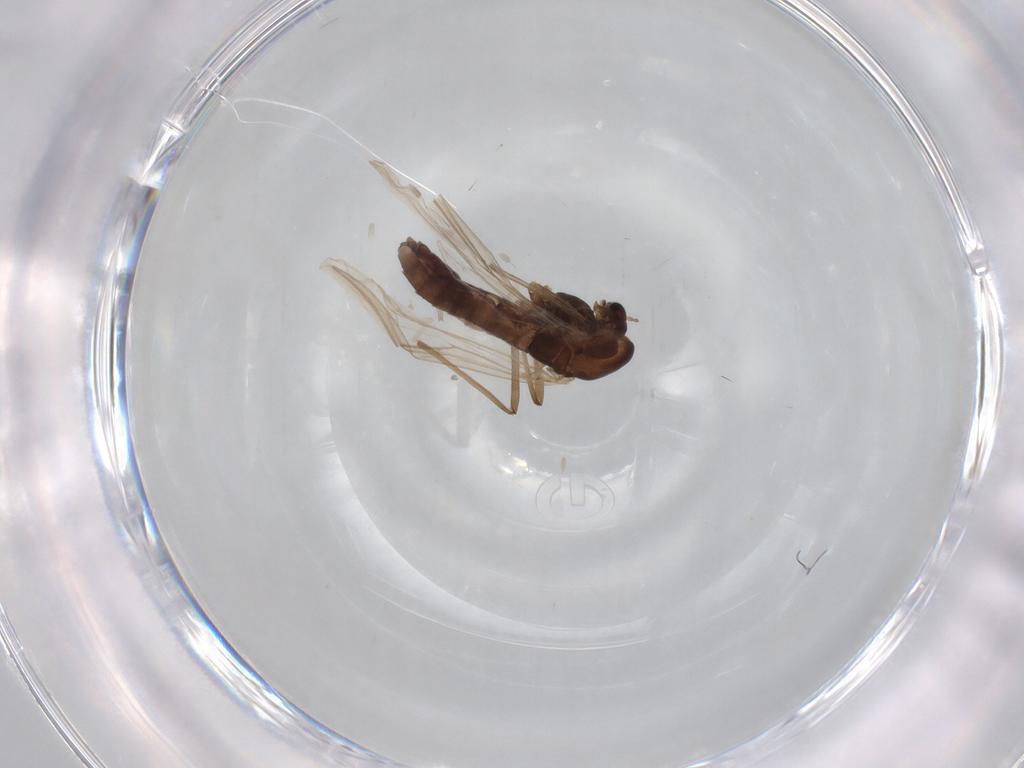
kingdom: Animalia
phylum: Arthropoda
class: Insecta
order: Diptera
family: Chironomidae
